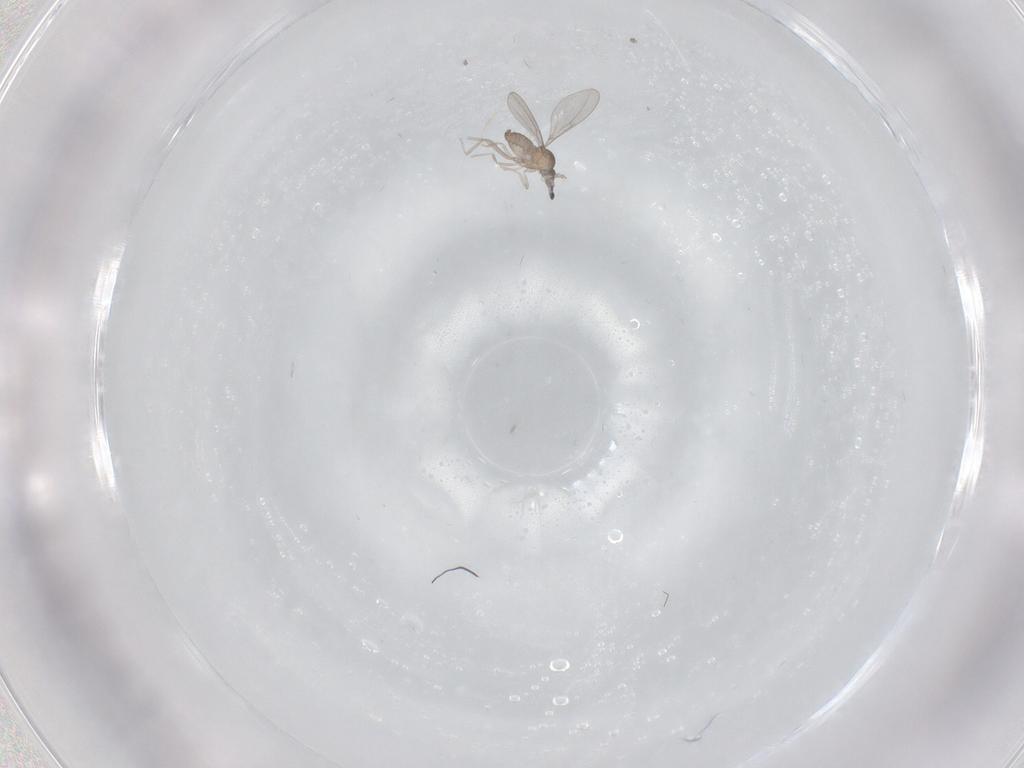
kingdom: Animalia
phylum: Arthropoda
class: Insecta
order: Diptera
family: Cecidomyiidae
